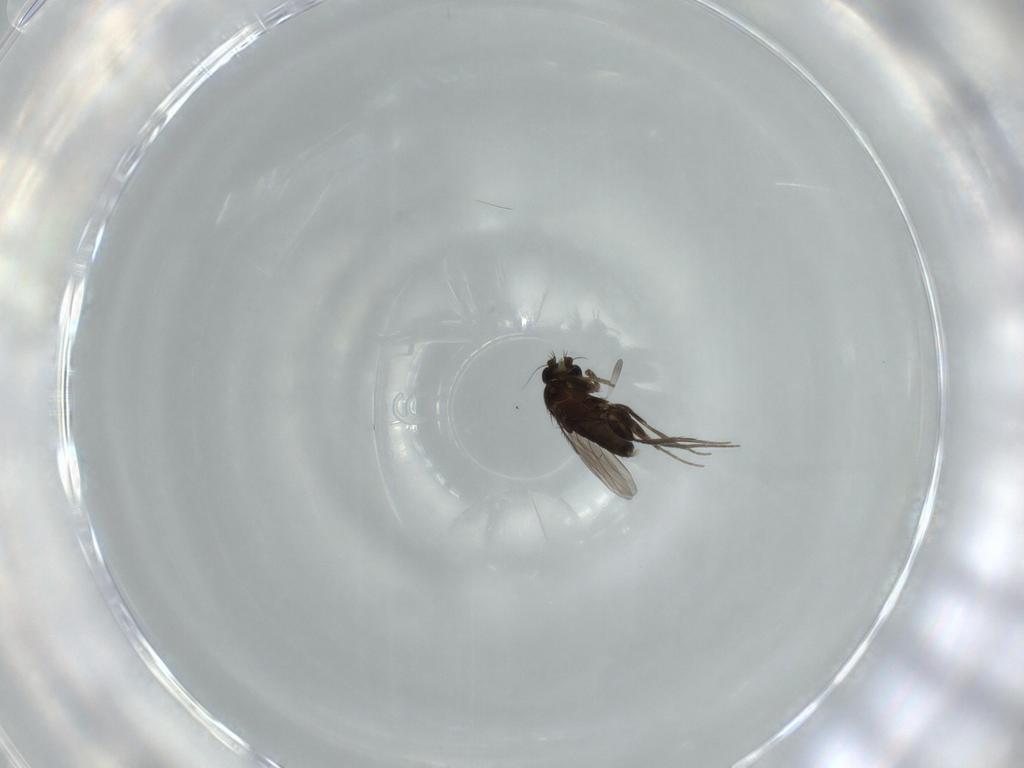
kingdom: Animalia
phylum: Arthropoda
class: Insecta
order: Diptera
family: Phoridae
